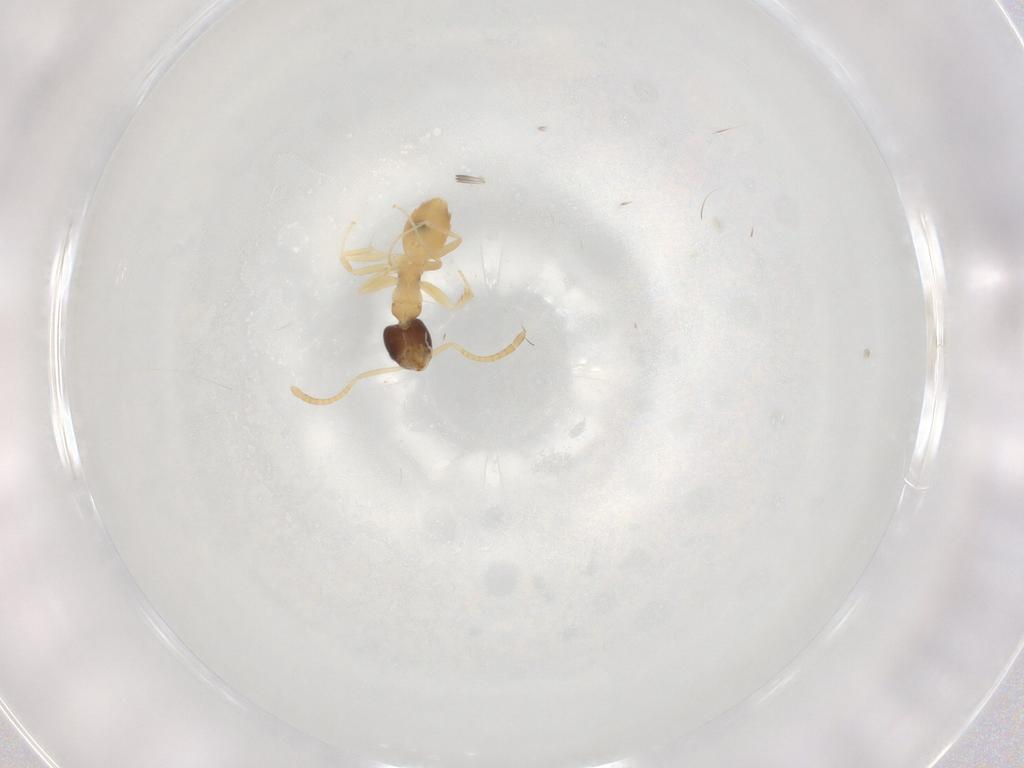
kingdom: Animalia
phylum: Arthropoda
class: Insecta
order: Hymenoptera
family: Formicidae
